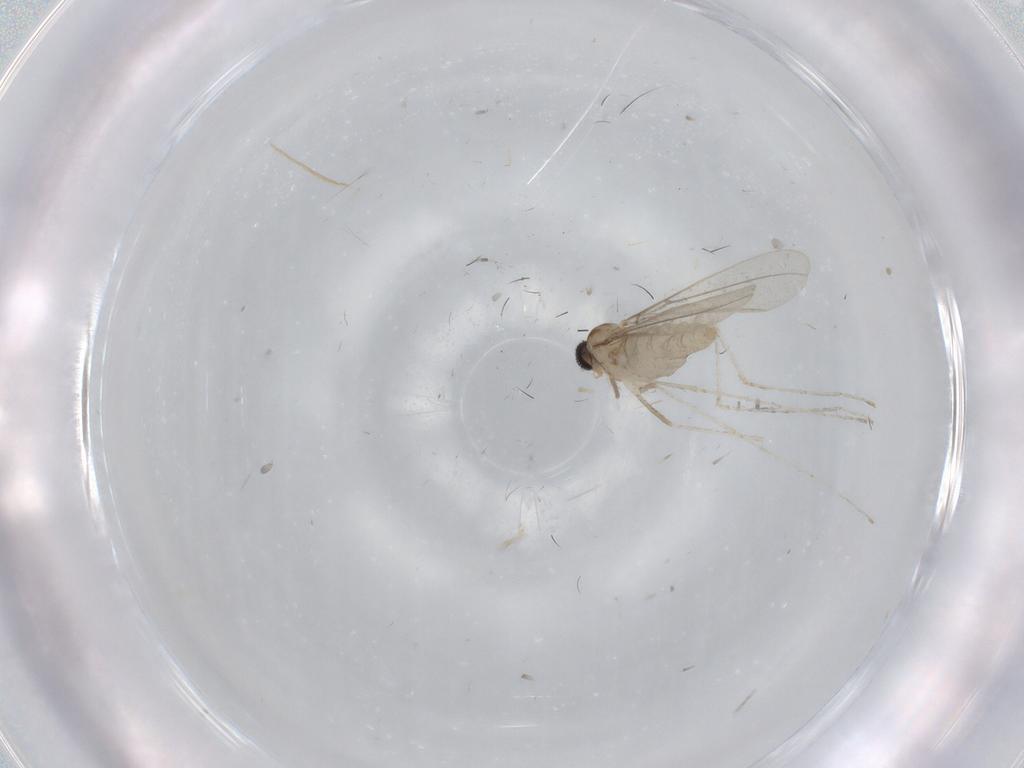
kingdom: Animalia
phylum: Arthropoda
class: Insecta
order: Diptera
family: Cecidomyiidae
